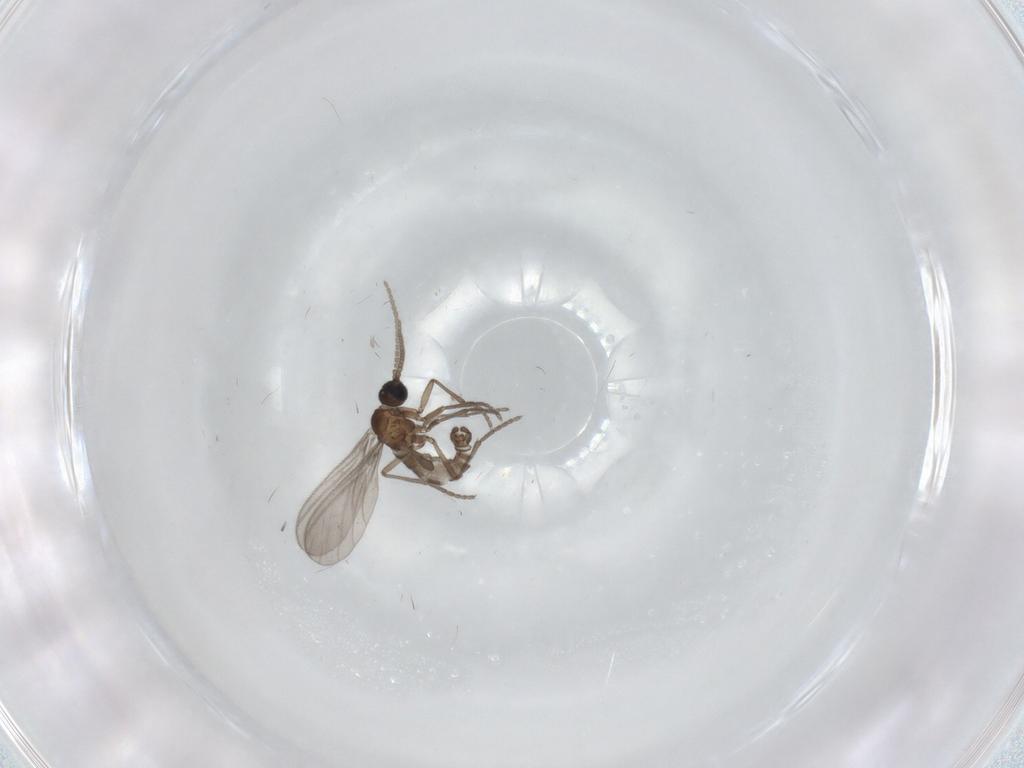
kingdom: Animalia
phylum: Arthropoda
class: Insecta
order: Diptera
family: Sciaridae
